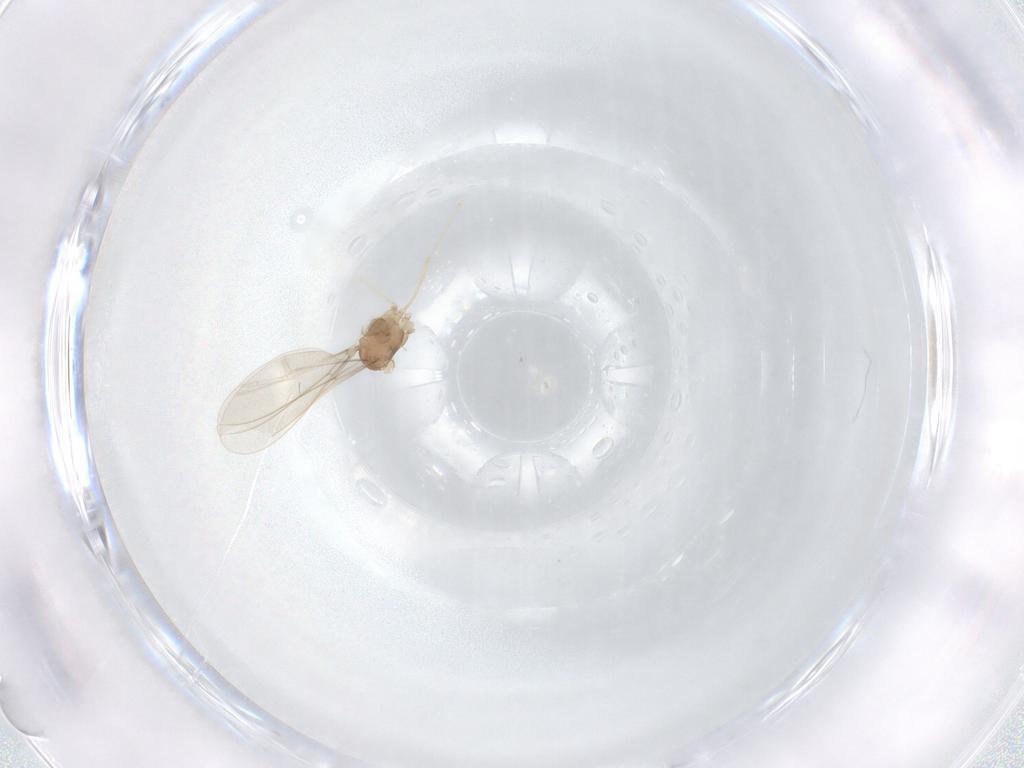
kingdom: Animalia
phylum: Arthropoda
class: Insecta
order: Diptera
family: Cecidomyiidae
